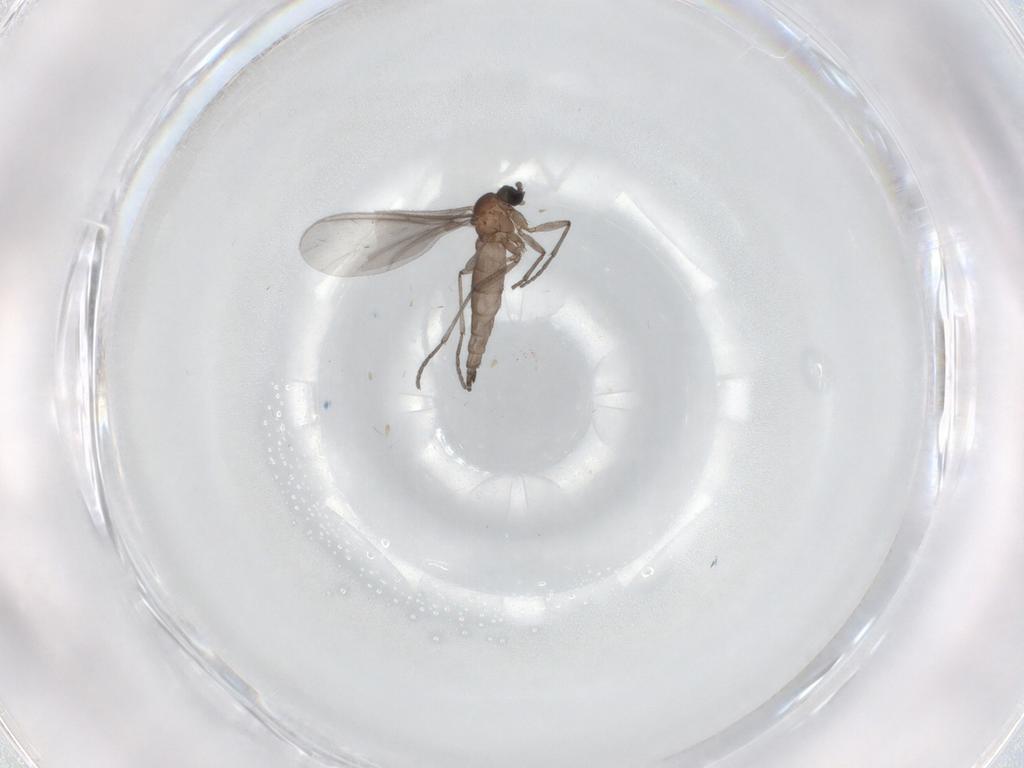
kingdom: Animalia
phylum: Arthropoda
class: Insecta
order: Diptera
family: Sciaridae
